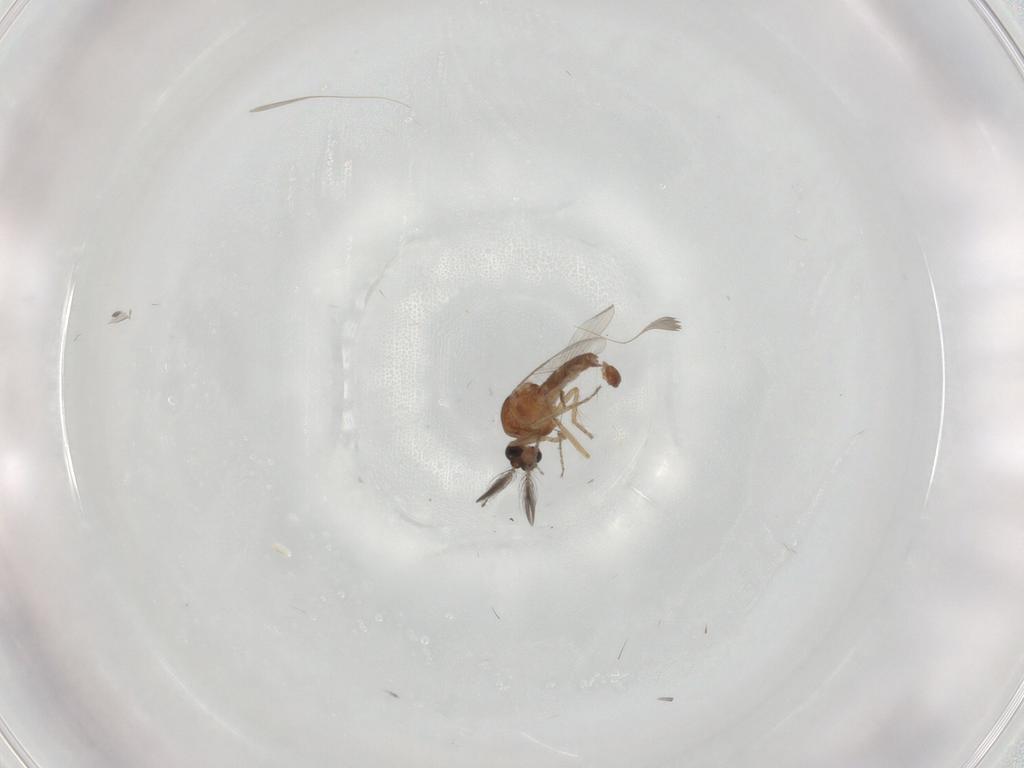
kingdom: Animalia
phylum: Arthropoda
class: Insecta
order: Diptera
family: Ceratopogonidae
